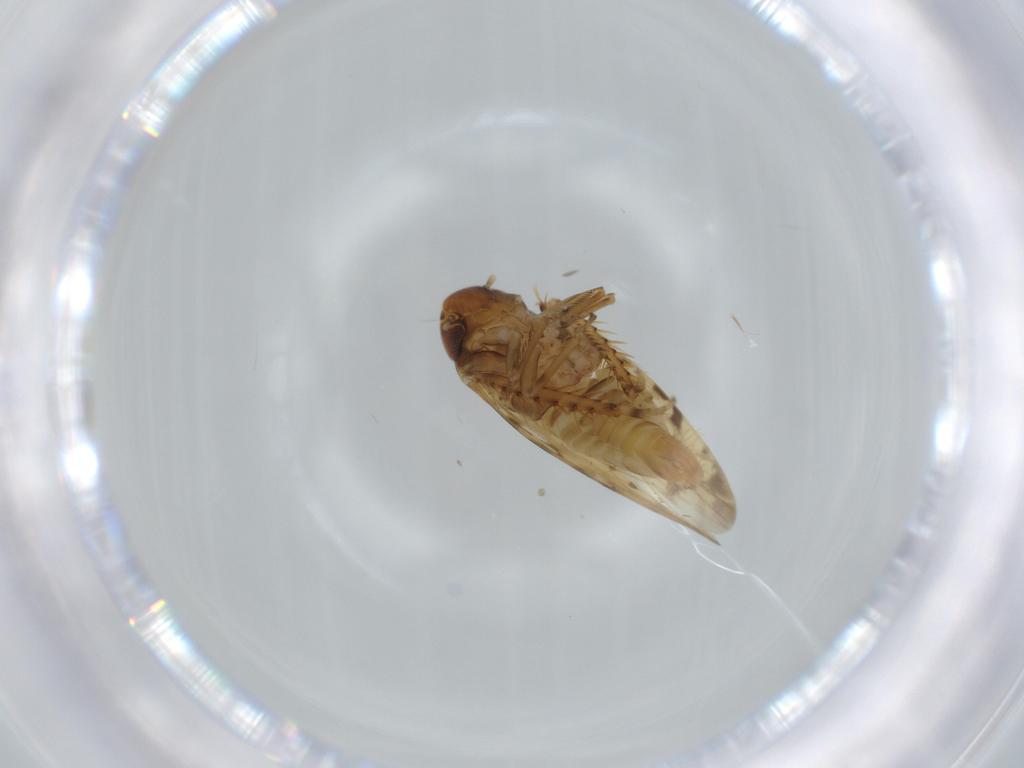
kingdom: Animalia
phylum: Arthropoda
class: Insecta
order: Hemiptera
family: Cicadellidae
